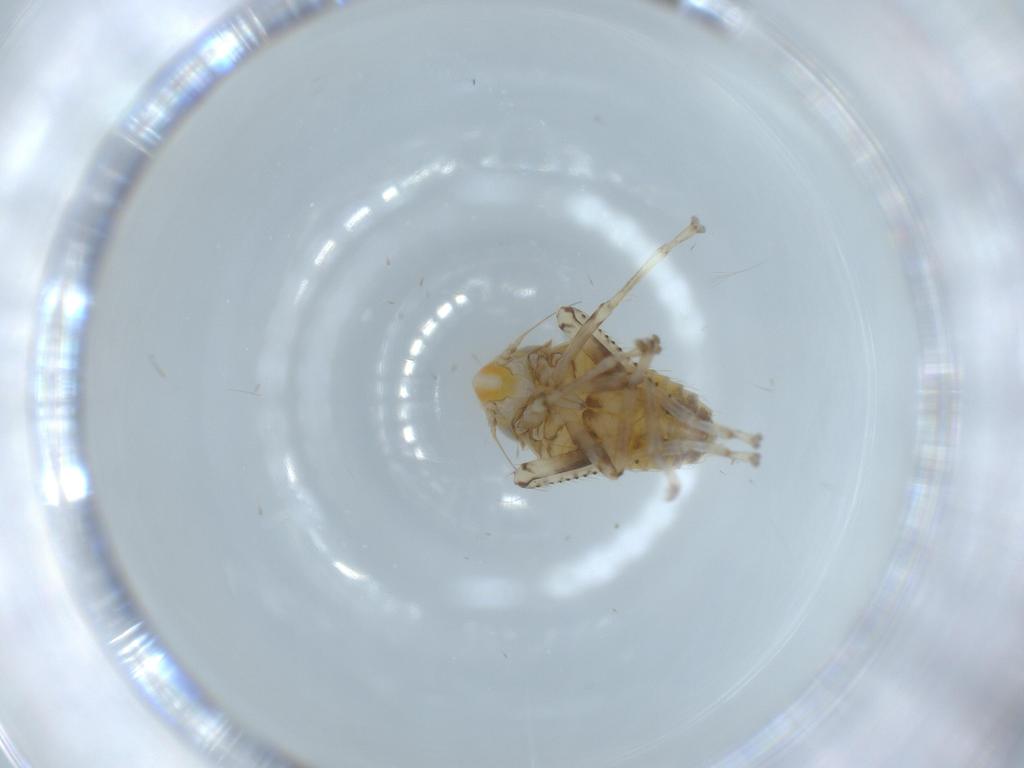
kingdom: Animalia
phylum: Arthropoda
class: Insecta
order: Hemiptera
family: Cicadellidae
